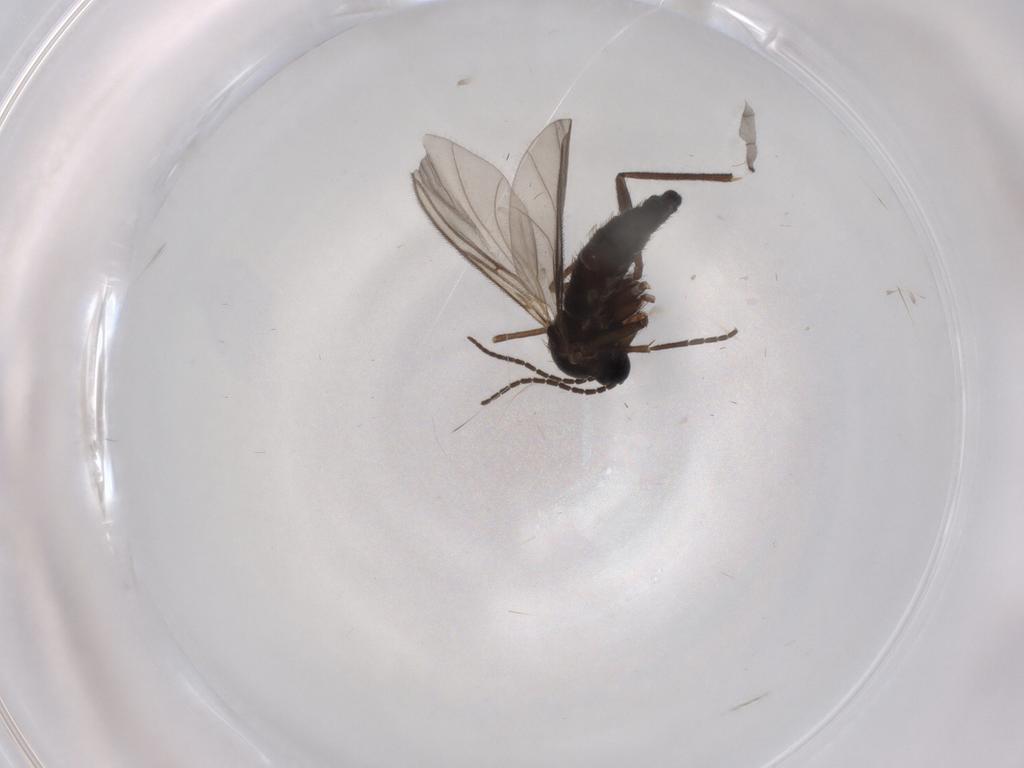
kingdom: Animalia
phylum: Arthropoda
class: Insecta
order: Diptera
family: Sciaridae
